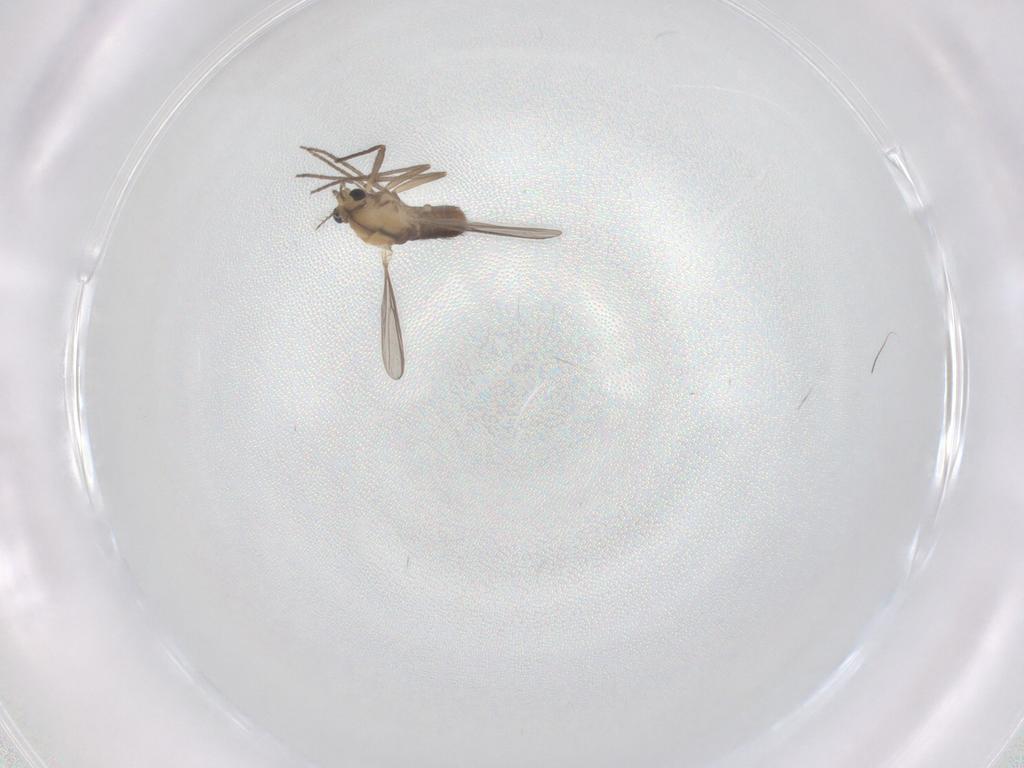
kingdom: Animalia
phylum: Arthropoda
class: Insecta
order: Diptera
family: Chironomidae
